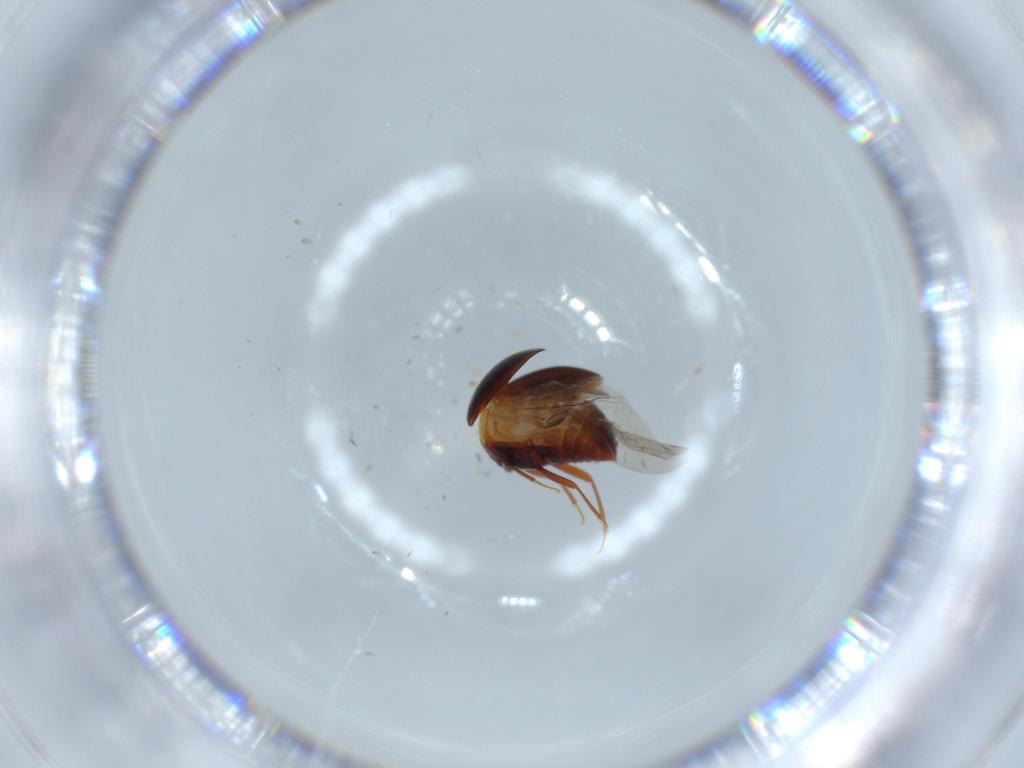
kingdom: Animalia
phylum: Arthropoda
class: Insecta
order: Coleoptera
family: Staphylinidae
